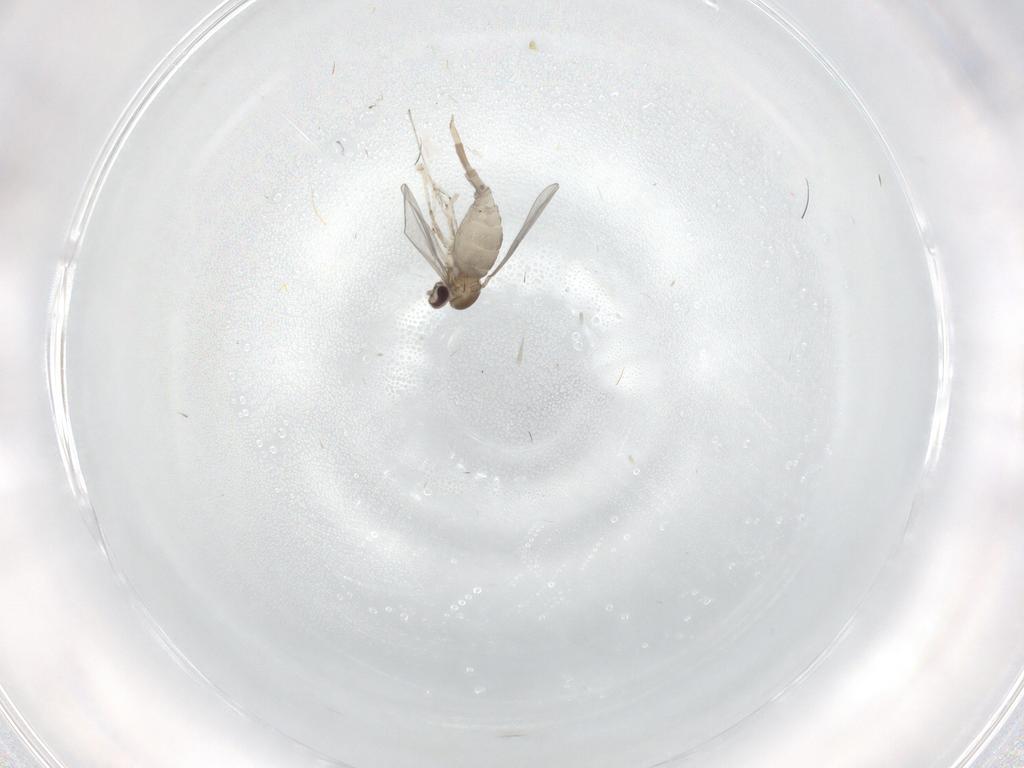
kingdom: Animalia
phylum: Arthropoda
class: Insecta
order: Diptera
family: Cecidomyiidae
